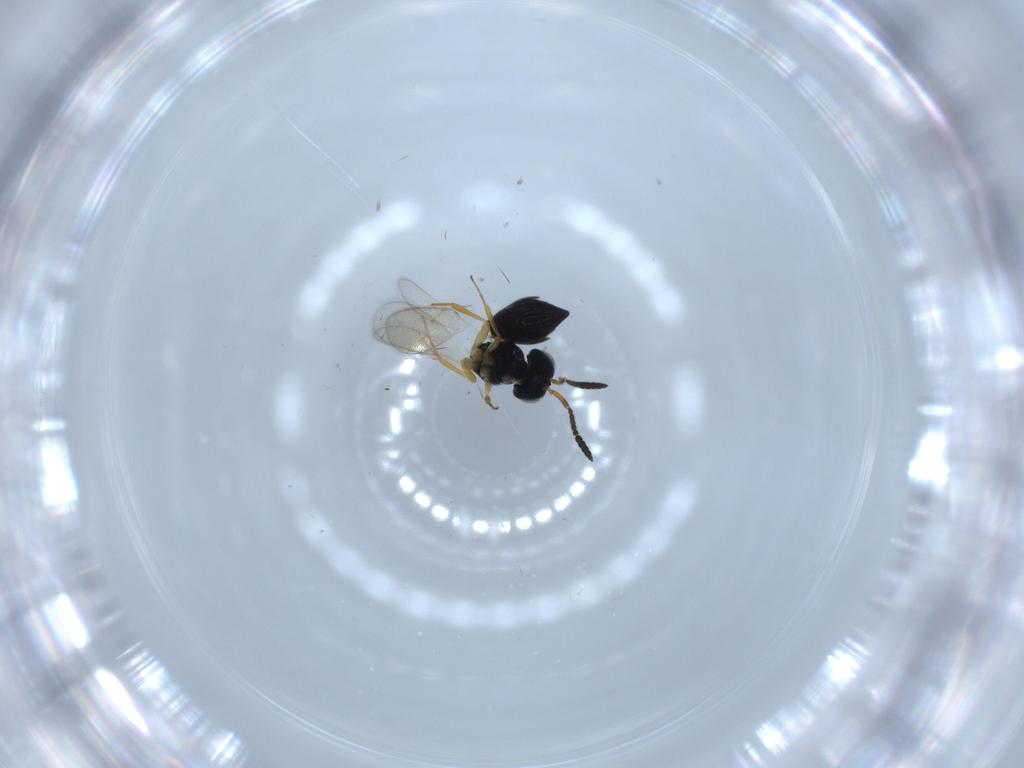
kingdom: Animalia
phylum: Arthropoda
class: Insecta
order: Hymenoptera
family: Scelionidae
